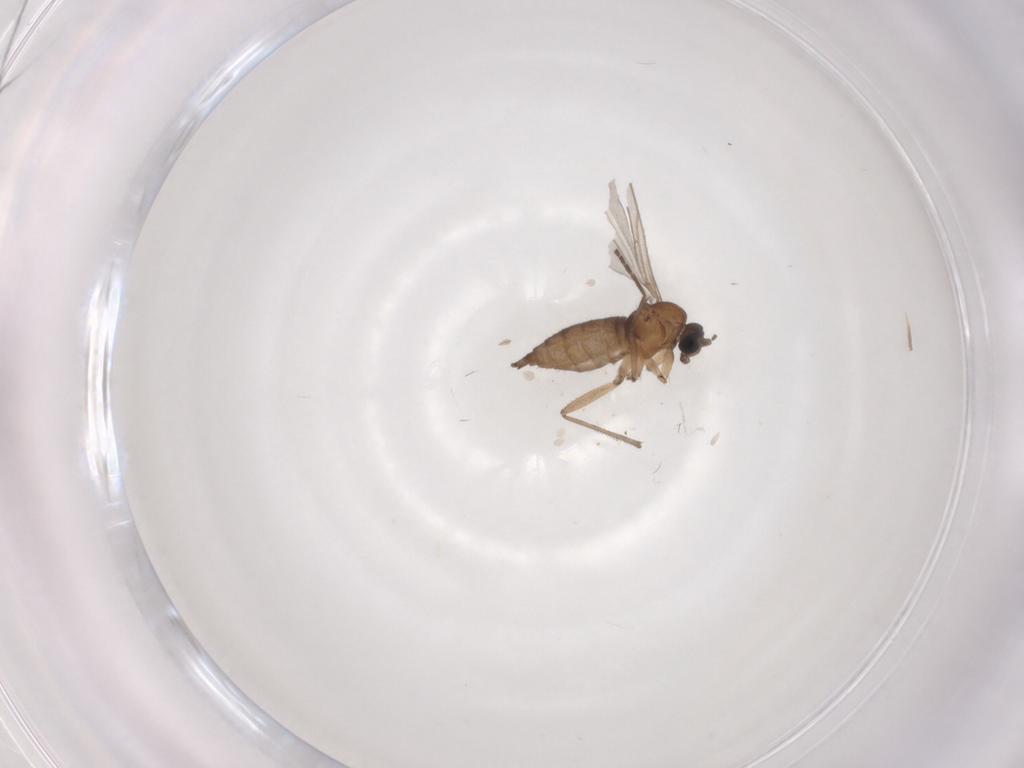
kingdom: Animalia
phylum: Arthropoda
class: Insecta
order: Diptera
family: Sciaridae
